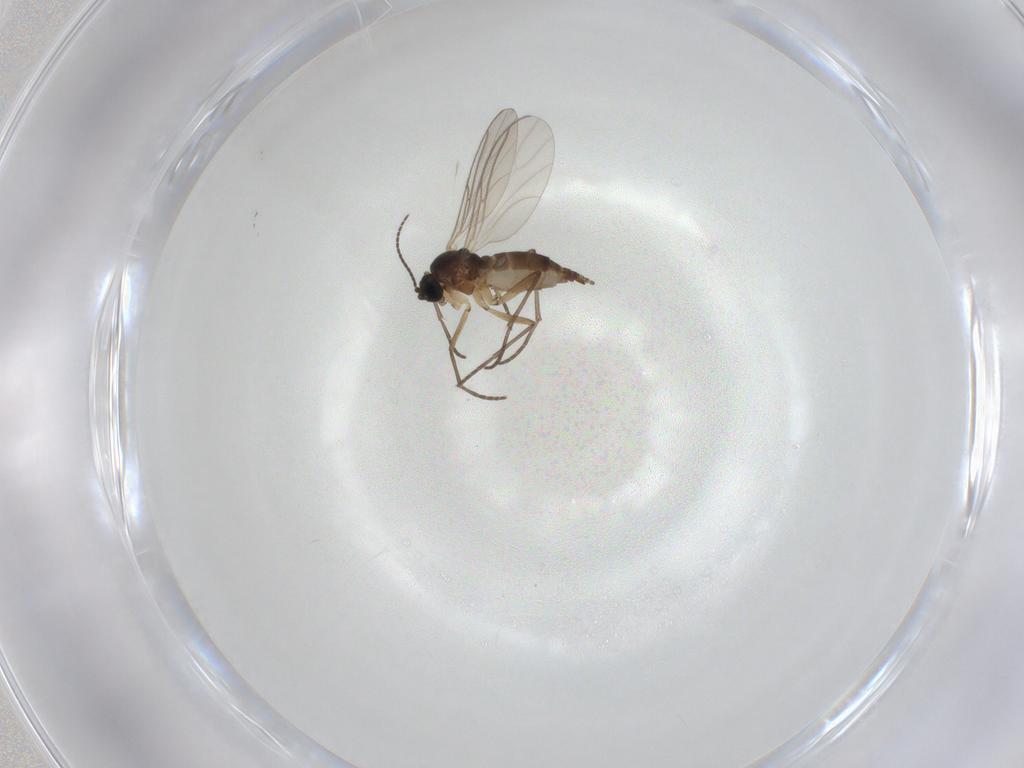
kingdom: Animalia
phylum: Arthropoda
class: Insecta
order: Diptera
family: Sciaridae
